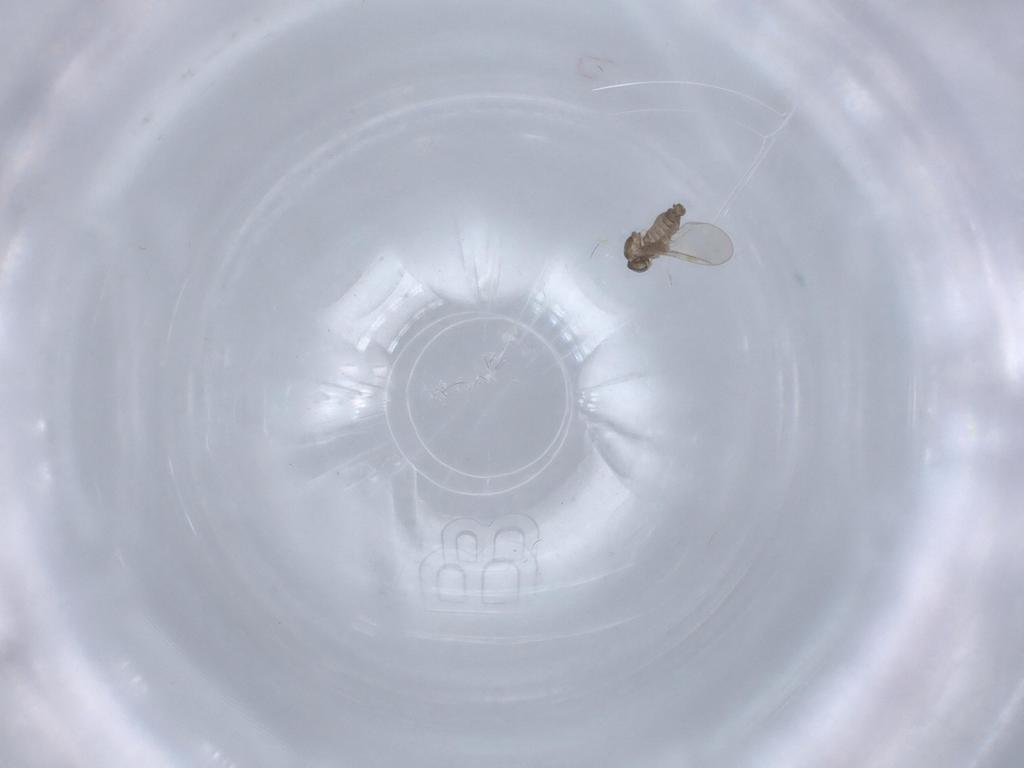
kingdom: Animalia
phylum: Arthropoda
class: Insecta
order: Diptera
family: Cecidomyiidae
